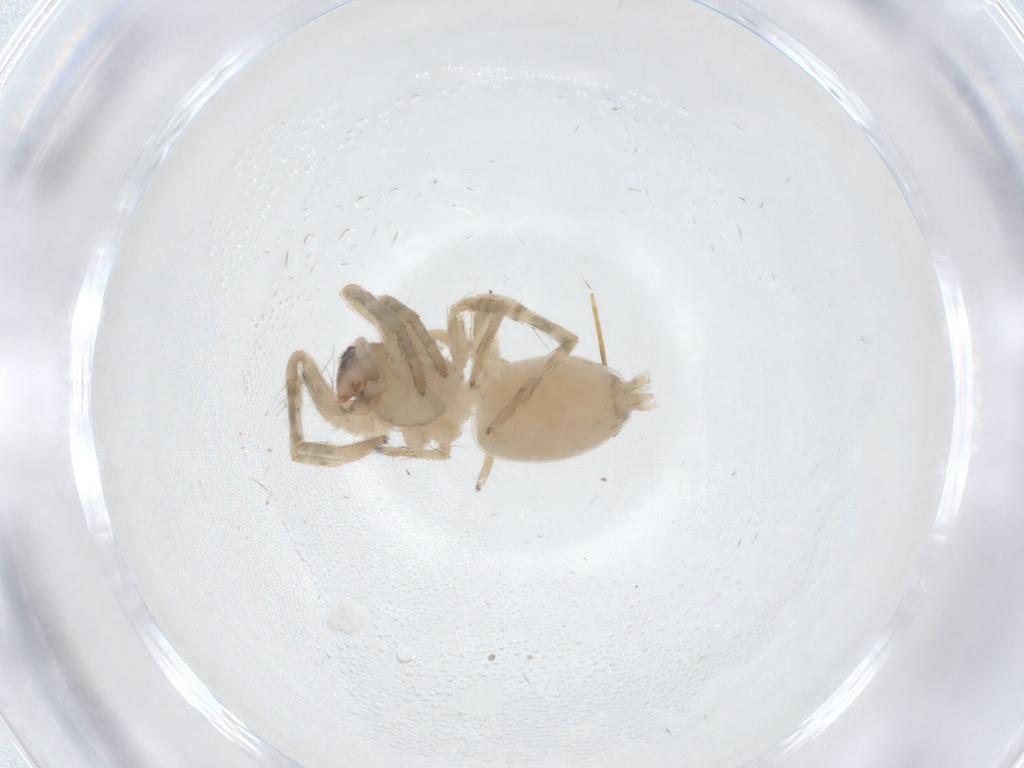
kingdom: Animalia
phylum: Arthropoda
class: Arachnida
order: Araneae
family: Anyphaenidae
